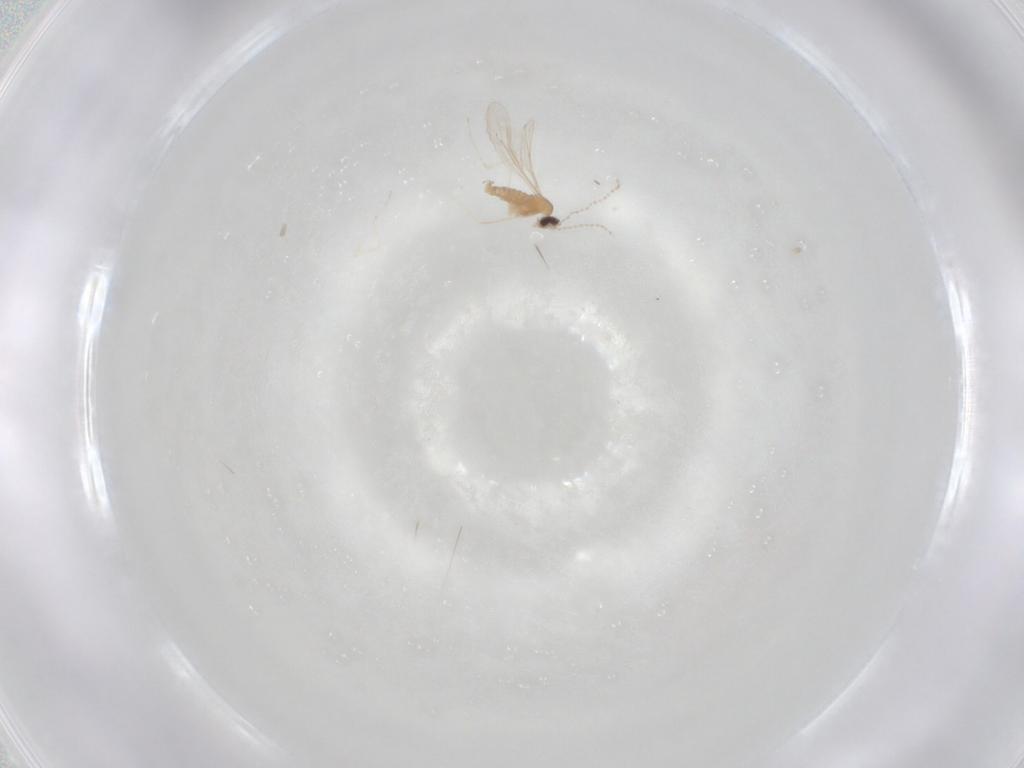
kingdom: Animalia
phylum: Arthropoda
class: Insecta
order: Diptera
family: Cecidomyiidae
